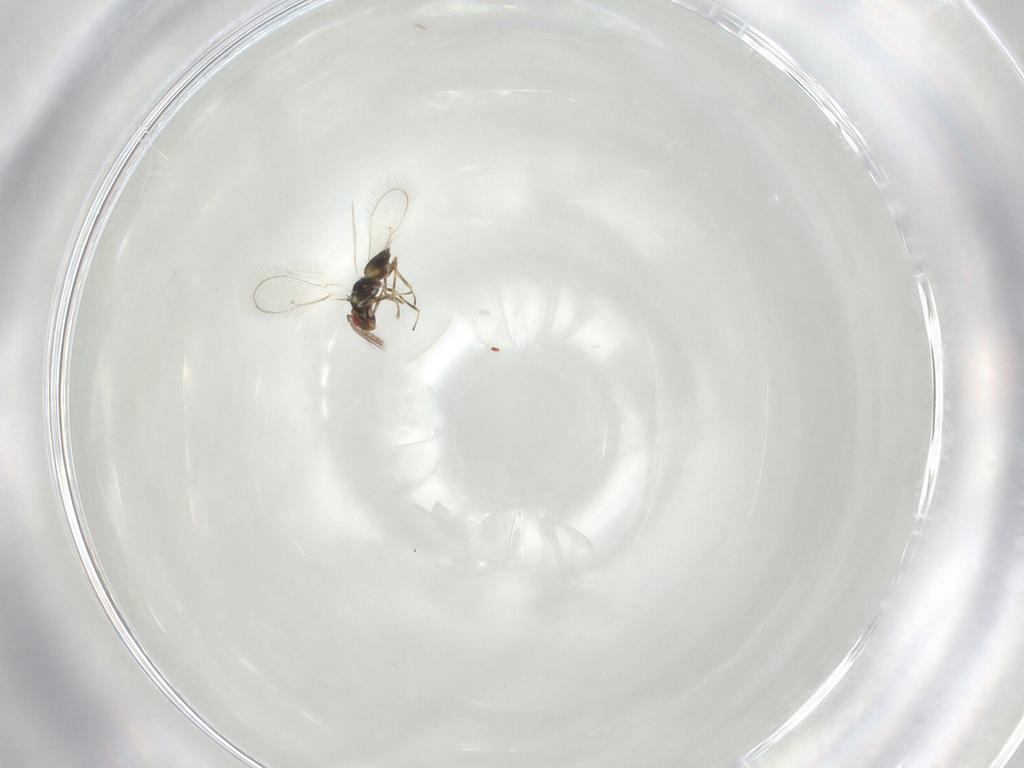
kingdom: Animalia
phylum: Arthropoda
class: Insecta
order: Hymenoptera
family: Eulophidae
